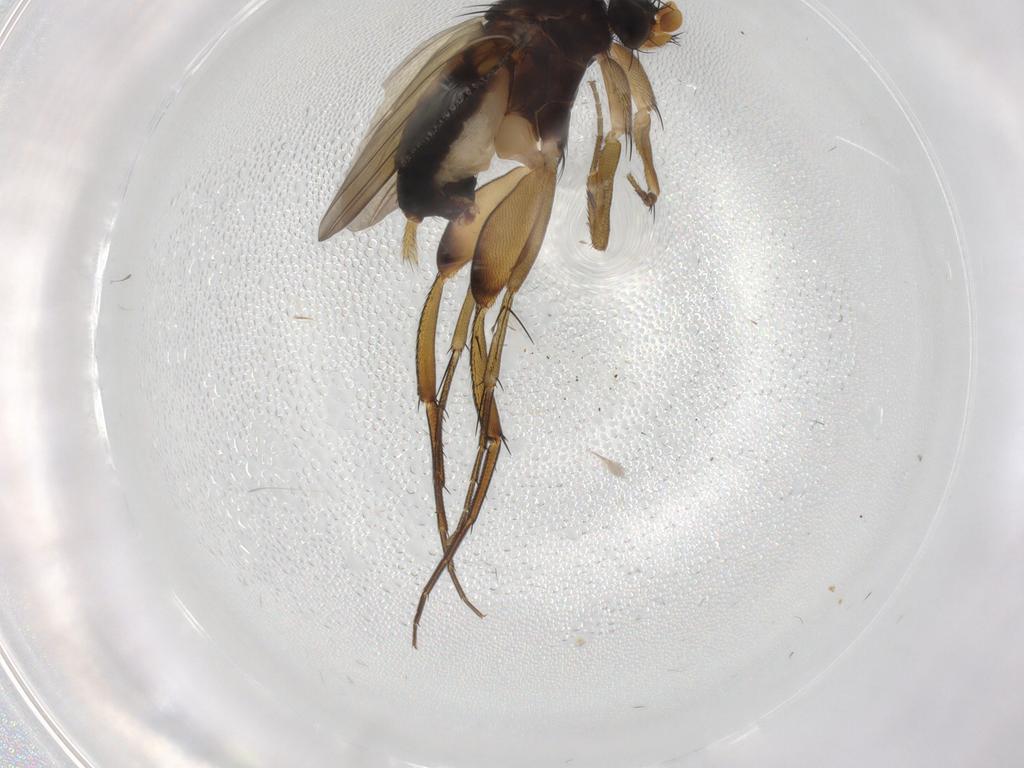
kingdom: Animalia
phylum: Arthropoda
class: Insecta
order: Diptera
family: Phoridae
